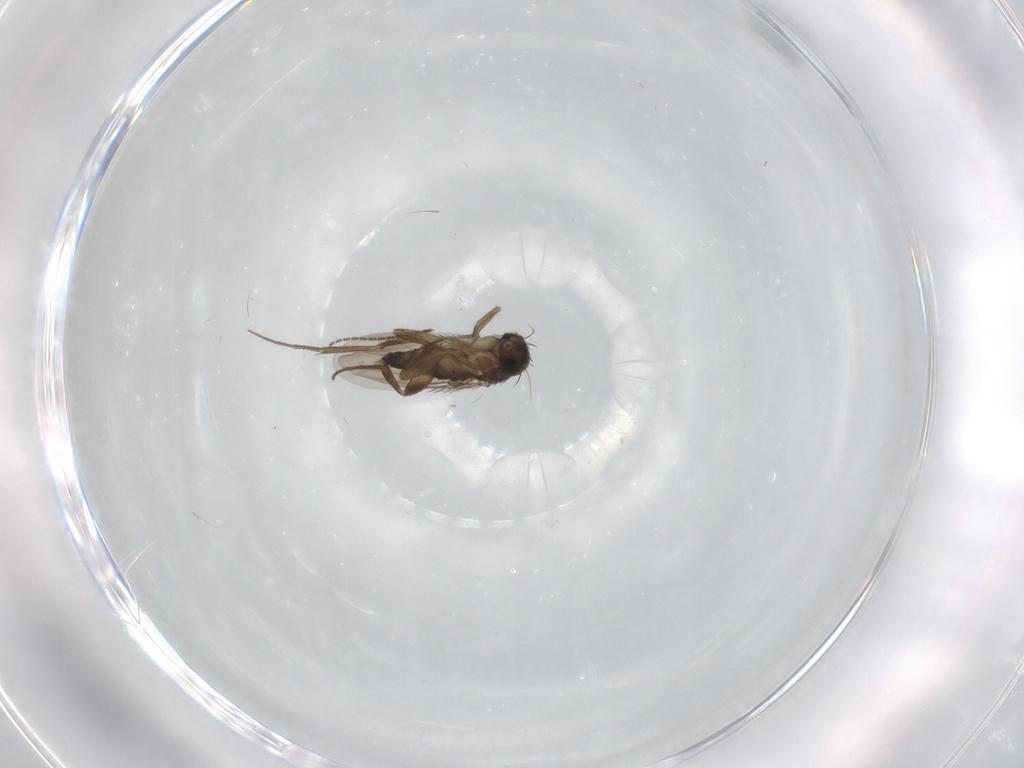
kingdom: Animalia
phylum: Arthropoda
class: Insecta
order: Diptera
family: Phoridae
